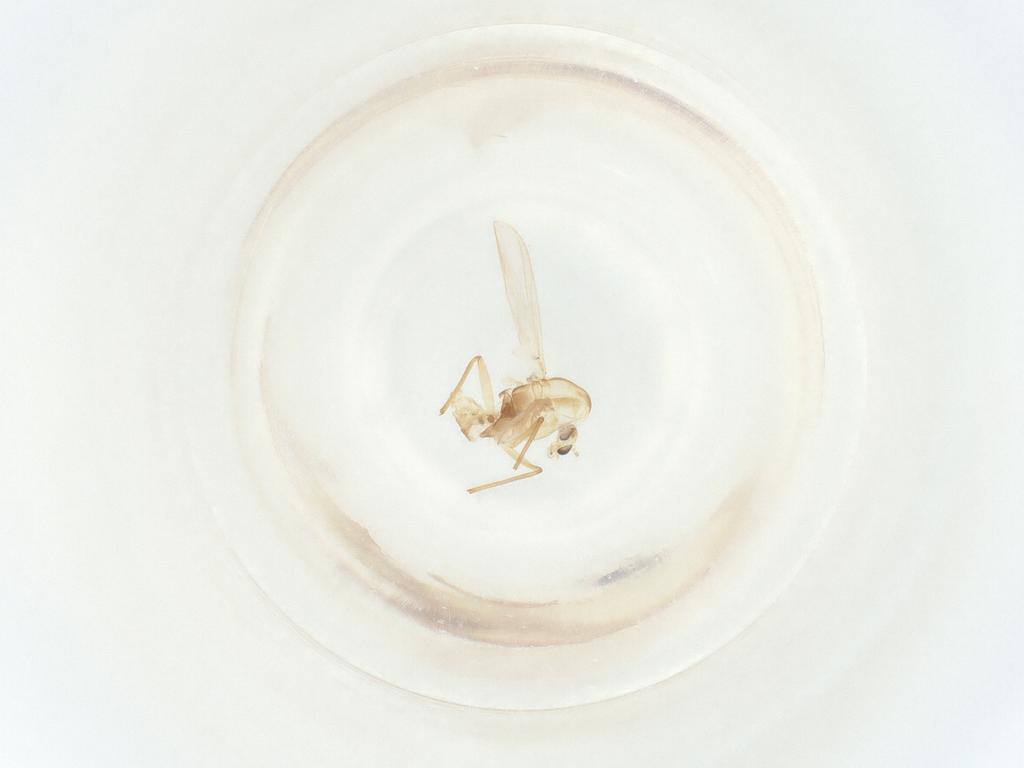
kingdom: Animalia
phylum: Arthropoda
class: Insecta
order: Diptera
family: Chironomidae
